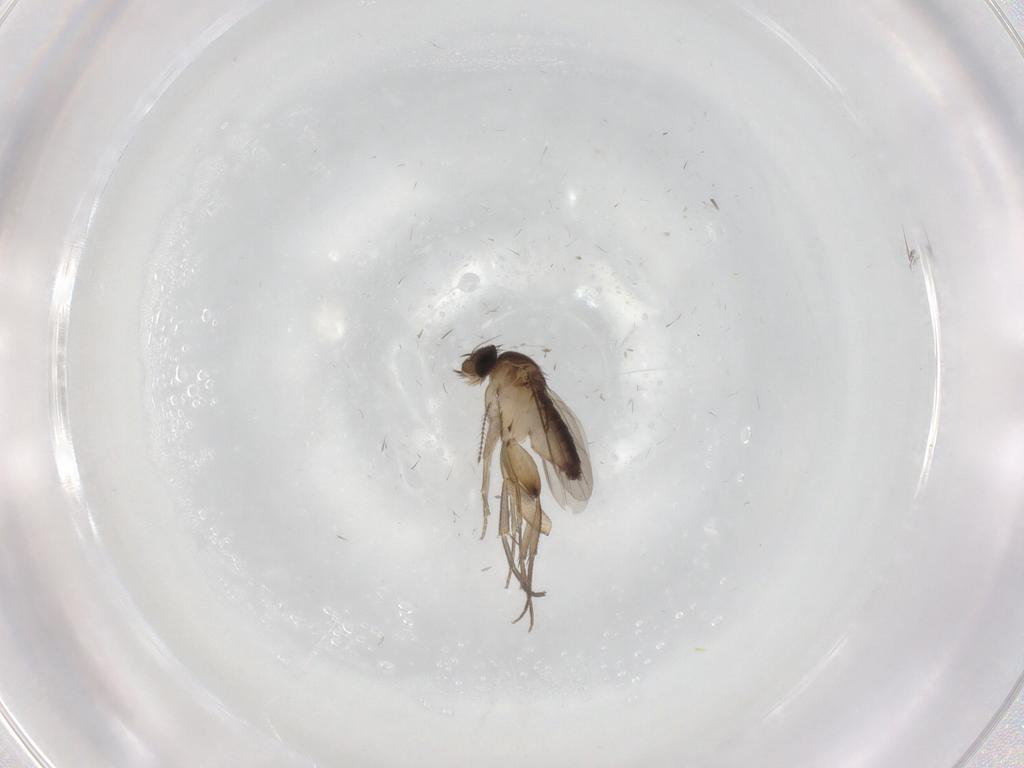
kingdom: Animalia
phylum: Arthropoda
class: Insecta
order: Diptera
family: Phoridae
